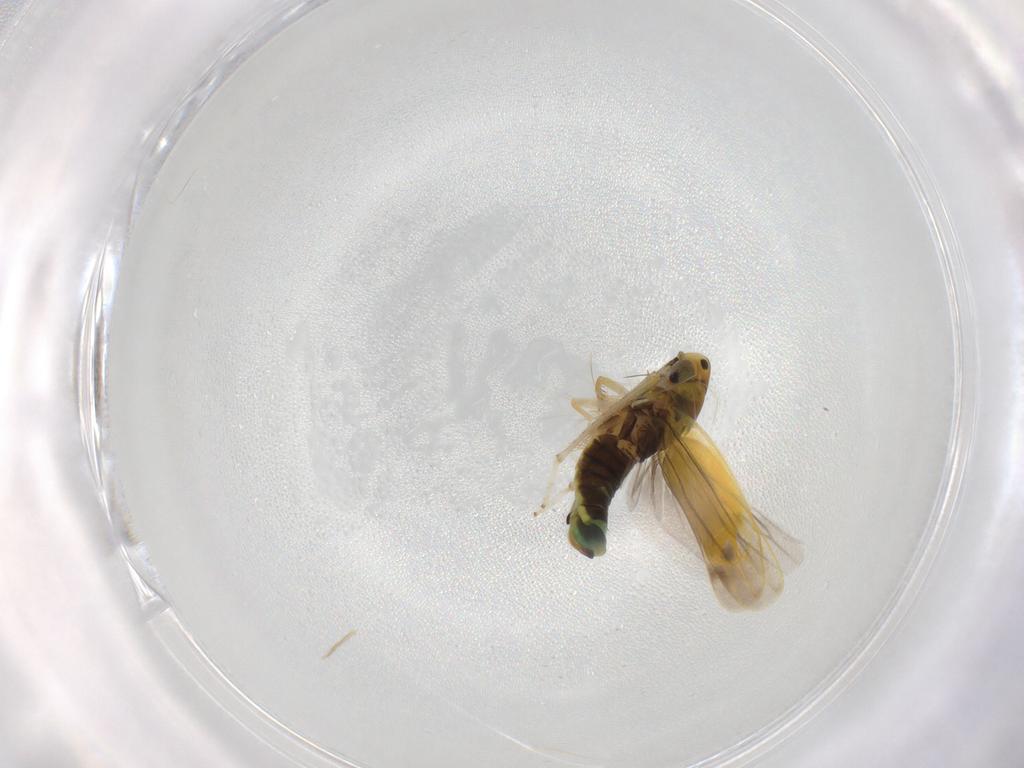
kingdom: Animalia
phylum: Arthropoda
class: Insecta
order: Hemiptera
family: Cicadellidae
